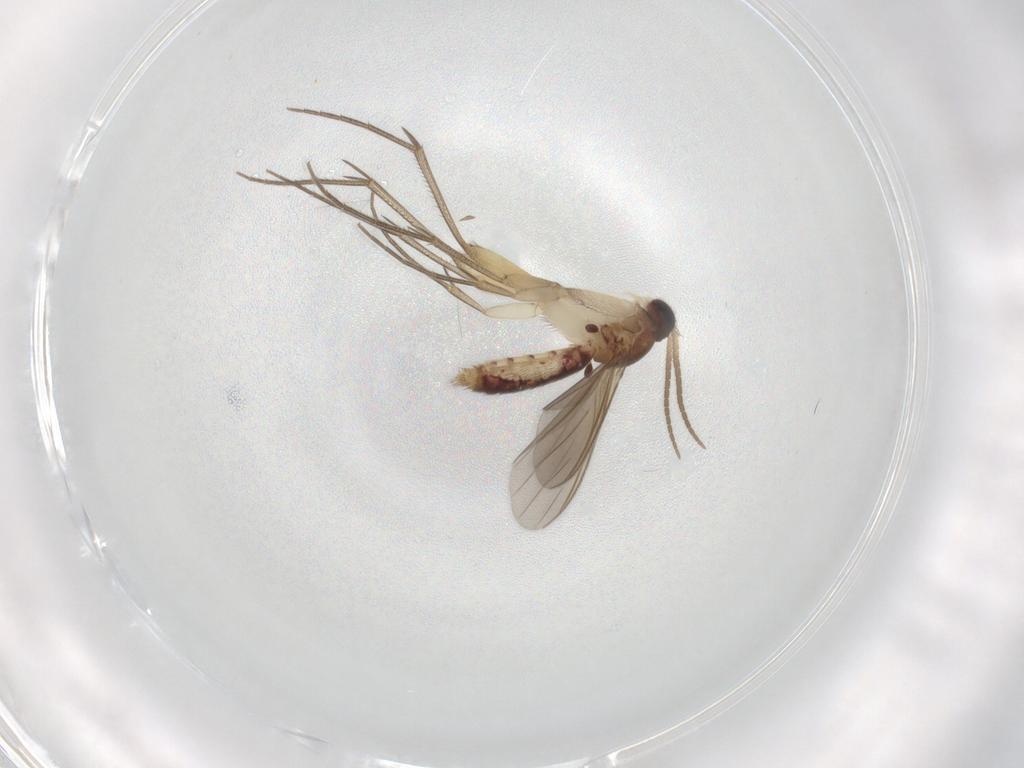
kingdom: Animalia
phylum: Arthropoda
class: Insecta
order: Diptera
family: Mycetophilidae
